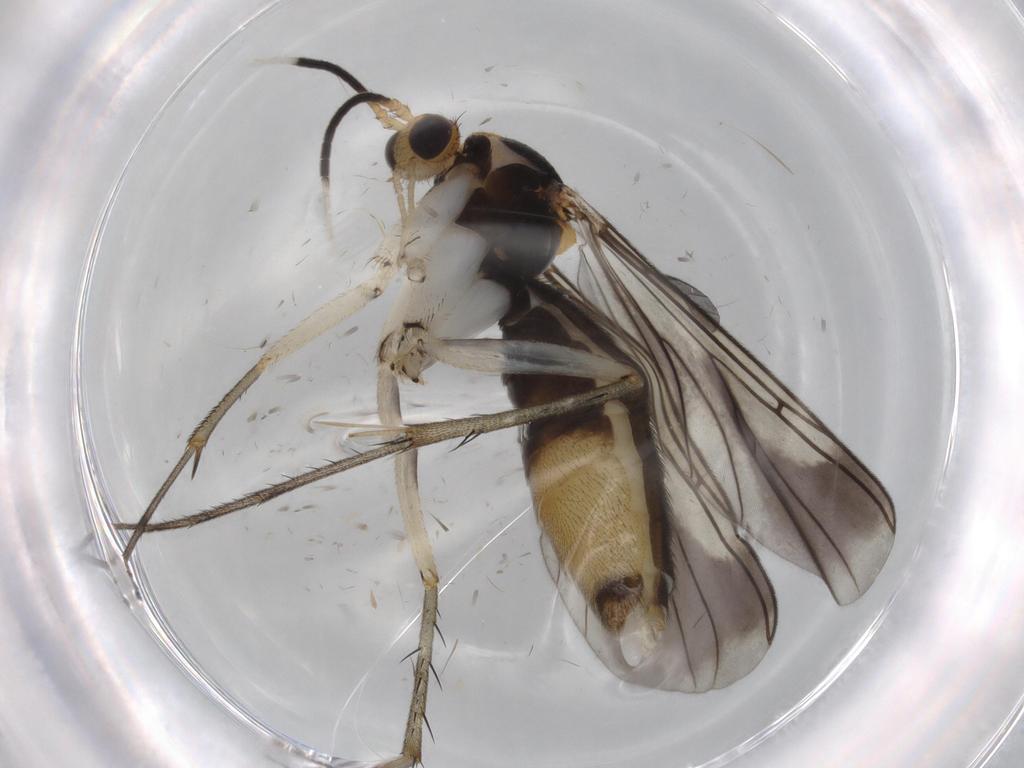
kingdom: Animalia
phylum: Arthropoda
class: Insecta
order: Diptera
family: Mycetophilidae
